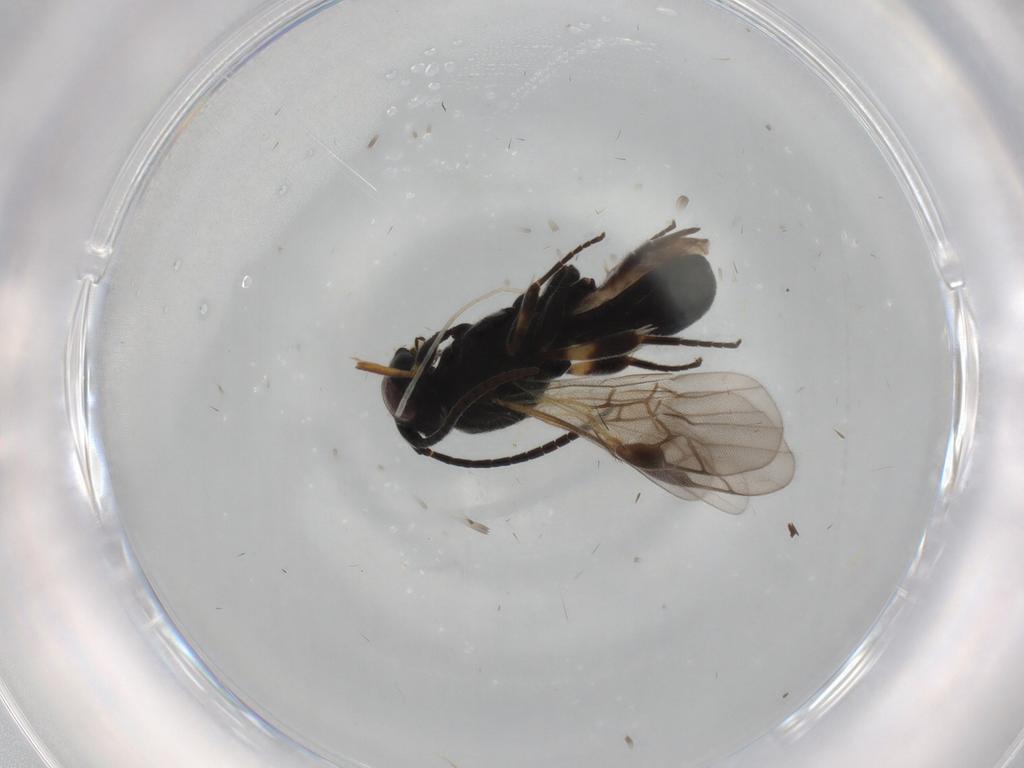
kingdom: Animalia
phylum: Arthropoda
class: Insecta
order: Hymenoptera
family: Braconidae
